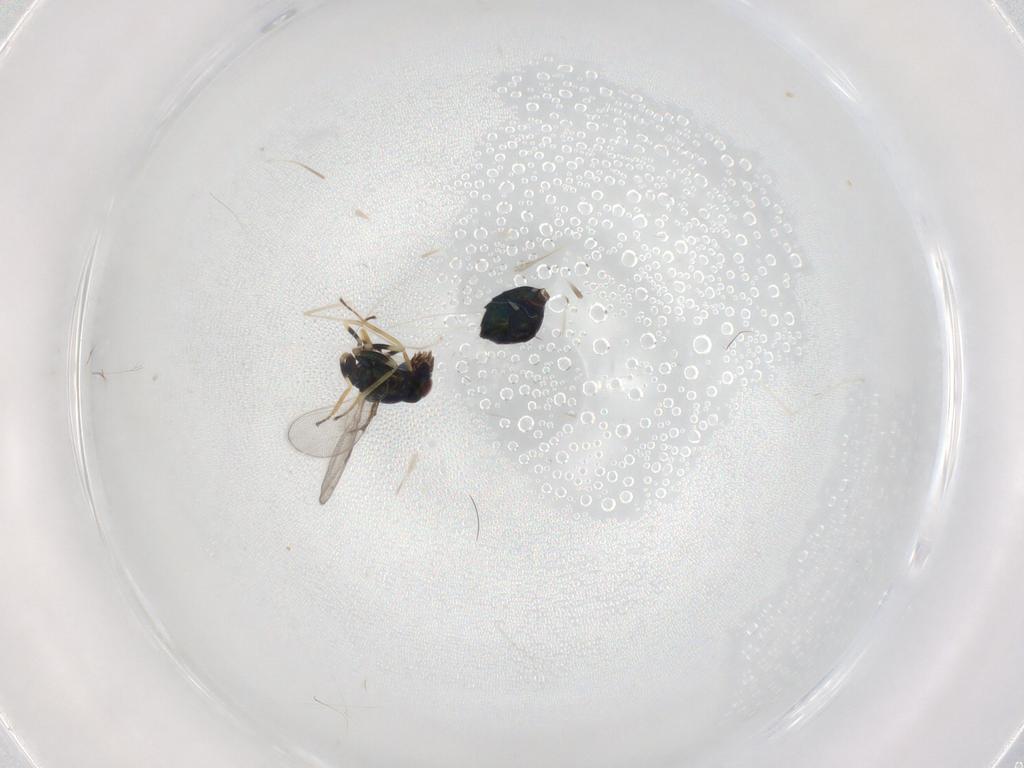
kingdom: Animalia
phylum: Arthropoda
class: Insecta
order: Hymenoptera
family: Eulophidae
